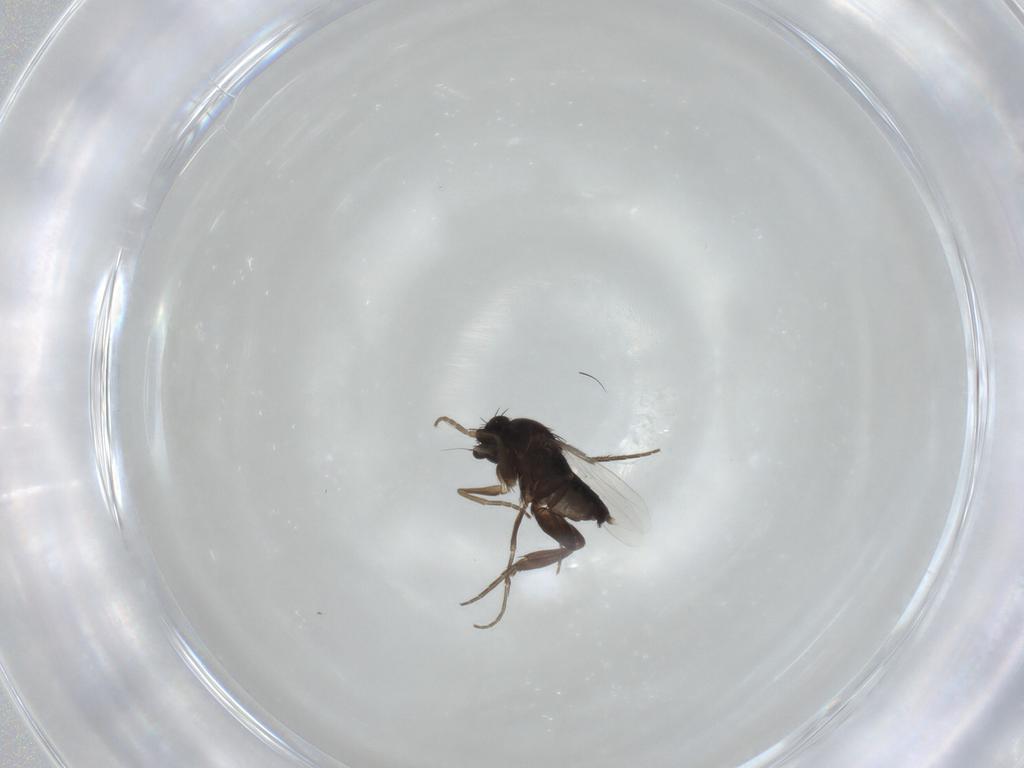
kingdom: Animalia
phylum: Arthropoda
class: Insecta
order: Diptera
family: Phoridae
